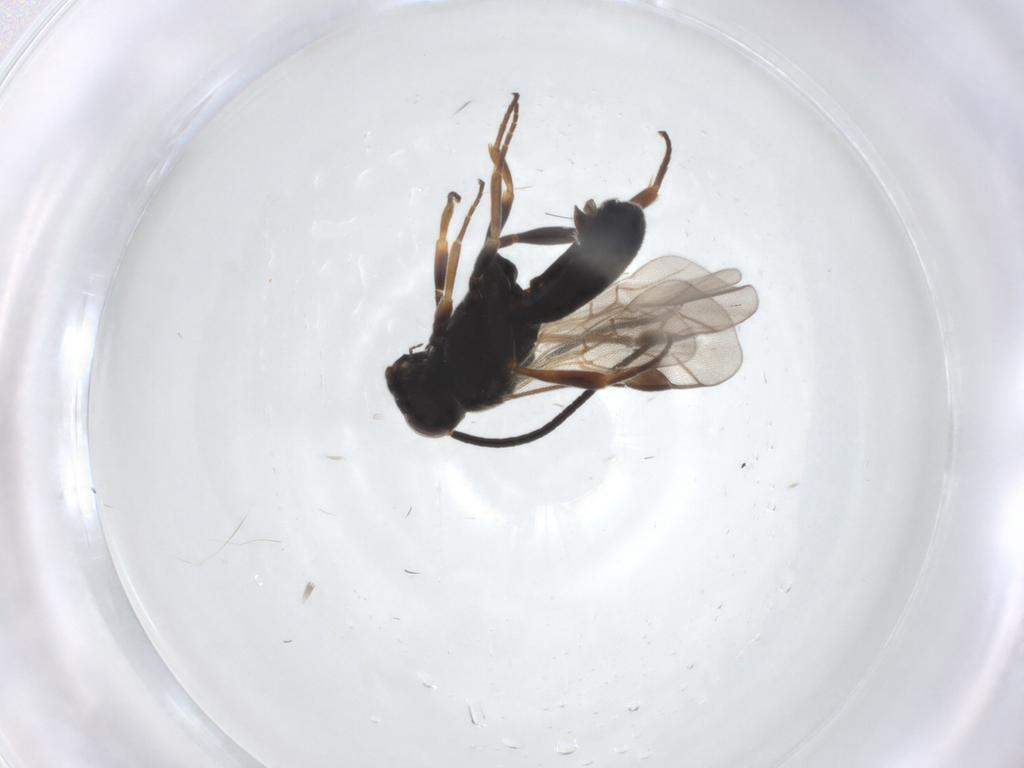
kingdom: Animalia
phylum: Arthropoda
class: Insecta
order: Hymenoptera
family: Braconidae
